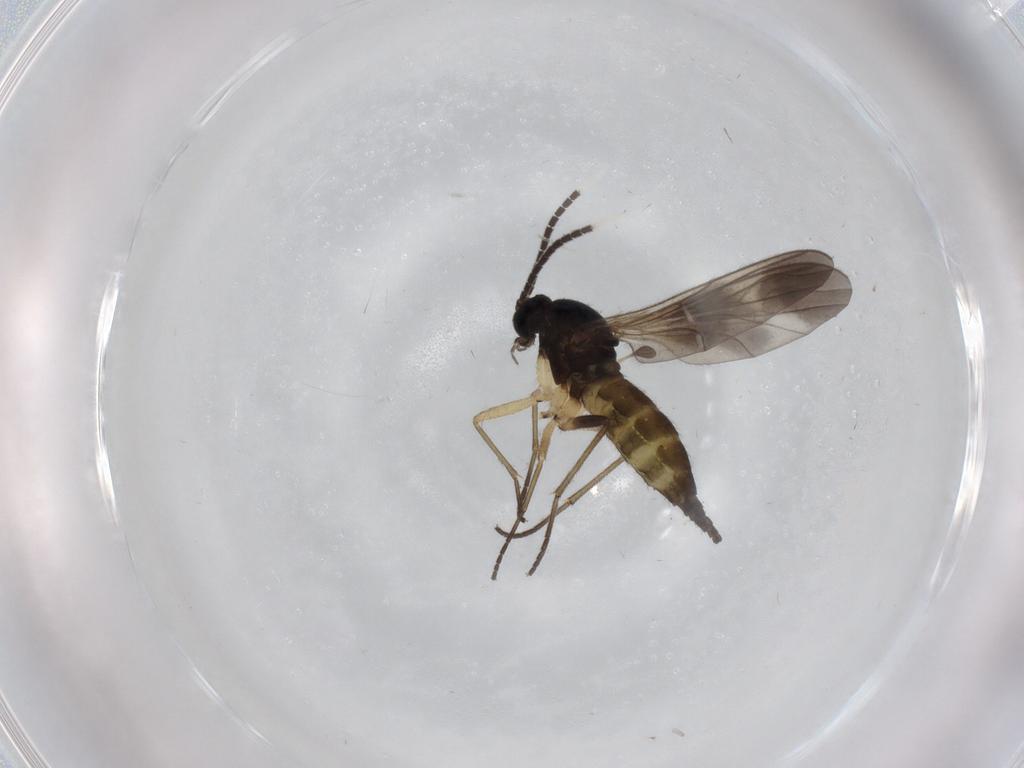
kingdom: Animalia
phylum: Arthropoda
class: Insecta
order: Diptera
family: Sciaridae
